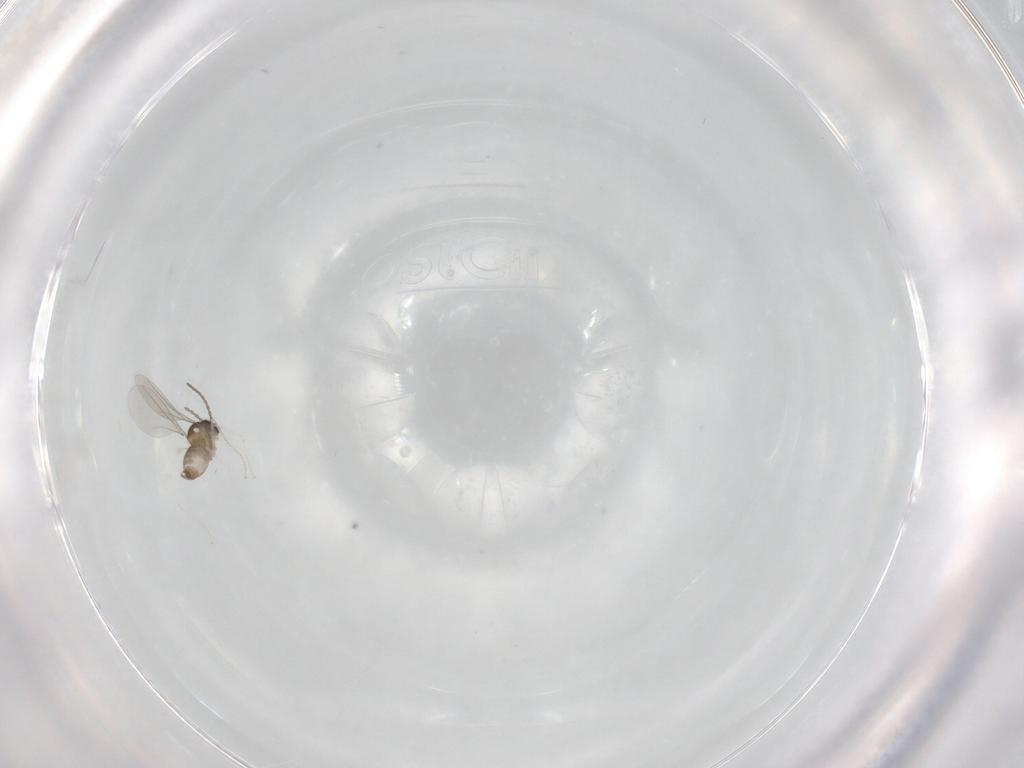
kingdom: Animalia
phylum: Arthropoda
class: Insecta
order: Diptera
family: Cecidomyiidae
